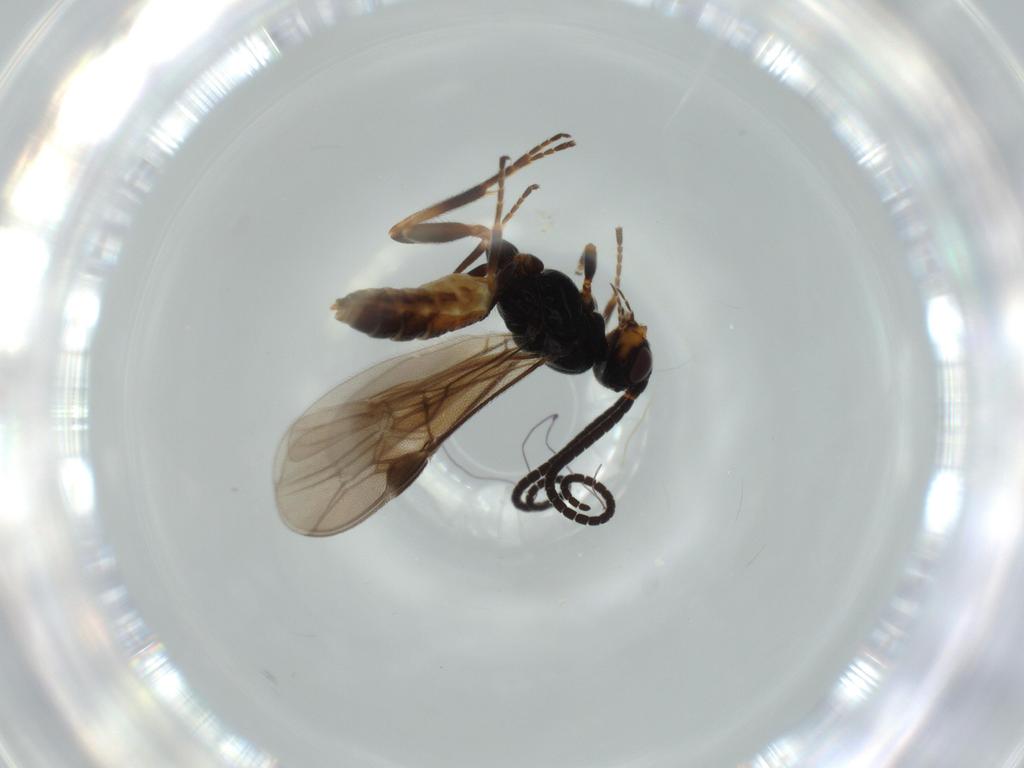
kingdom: Animalia
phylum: Arthropoda
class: Insecta
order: Hymenoptera
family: Braconidae
